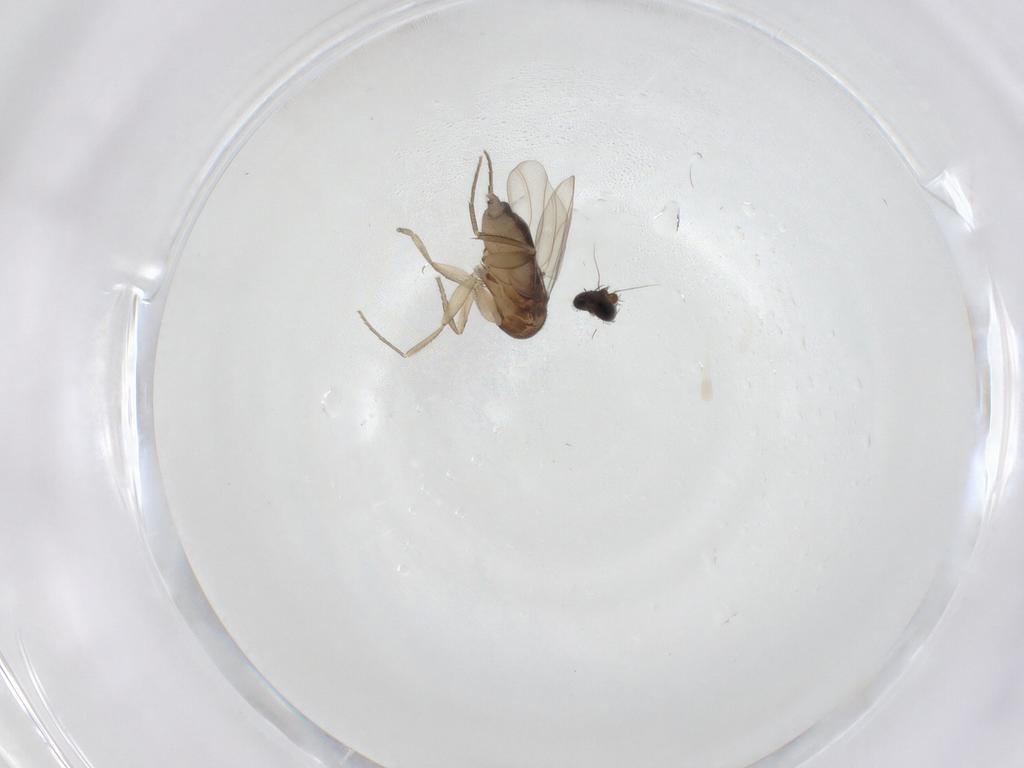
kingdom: Animalia
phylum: Arthropoda
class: Insecta
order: Diptera
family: Phoridae
